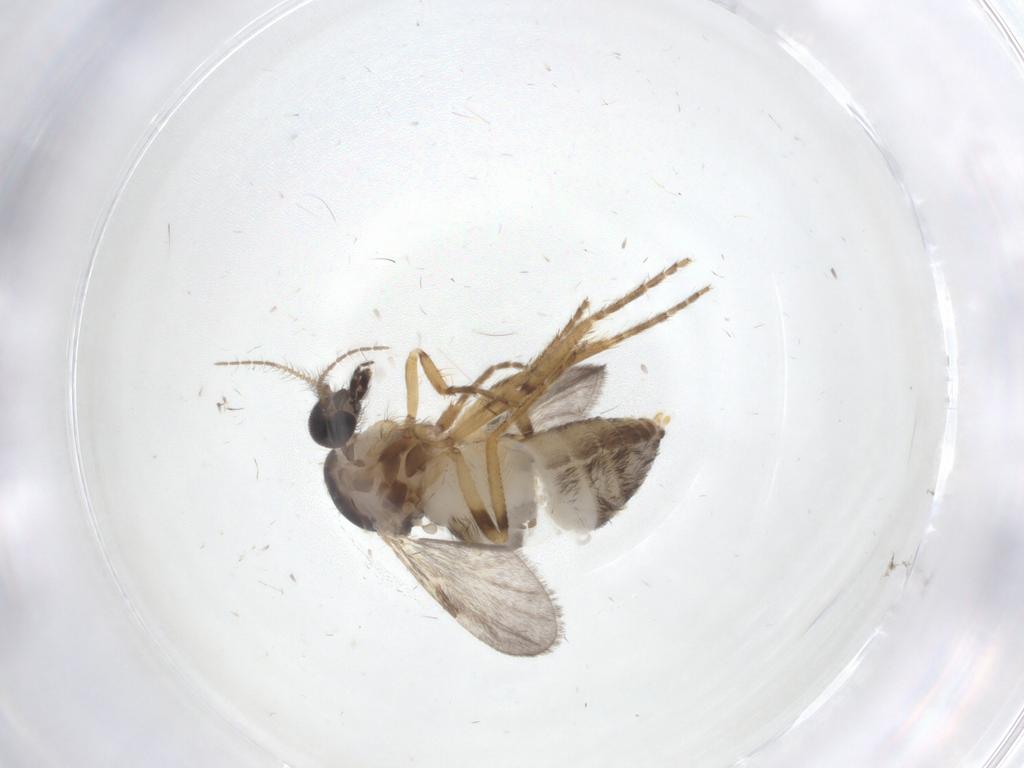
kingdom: Animalia
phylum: Arthropoda
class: Insecta
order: Diptera
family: Ceratopogonidae
